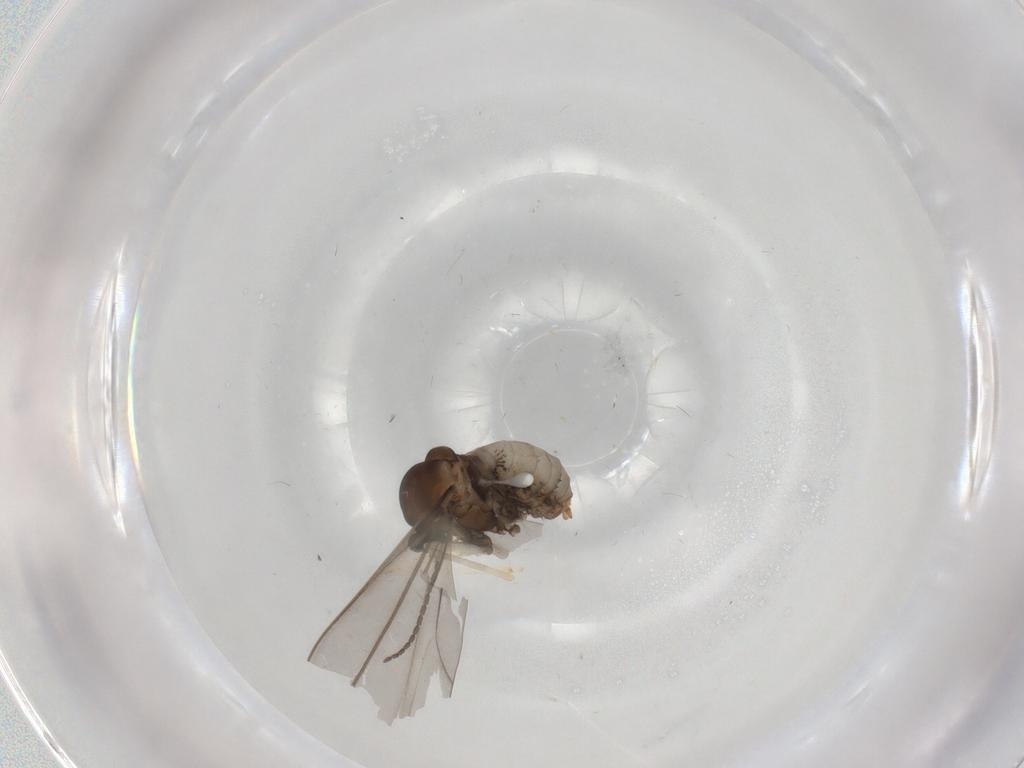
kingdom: Animalia
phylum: Arthropoda
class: Insecta
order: Diptera
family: Cecidomyiidae
